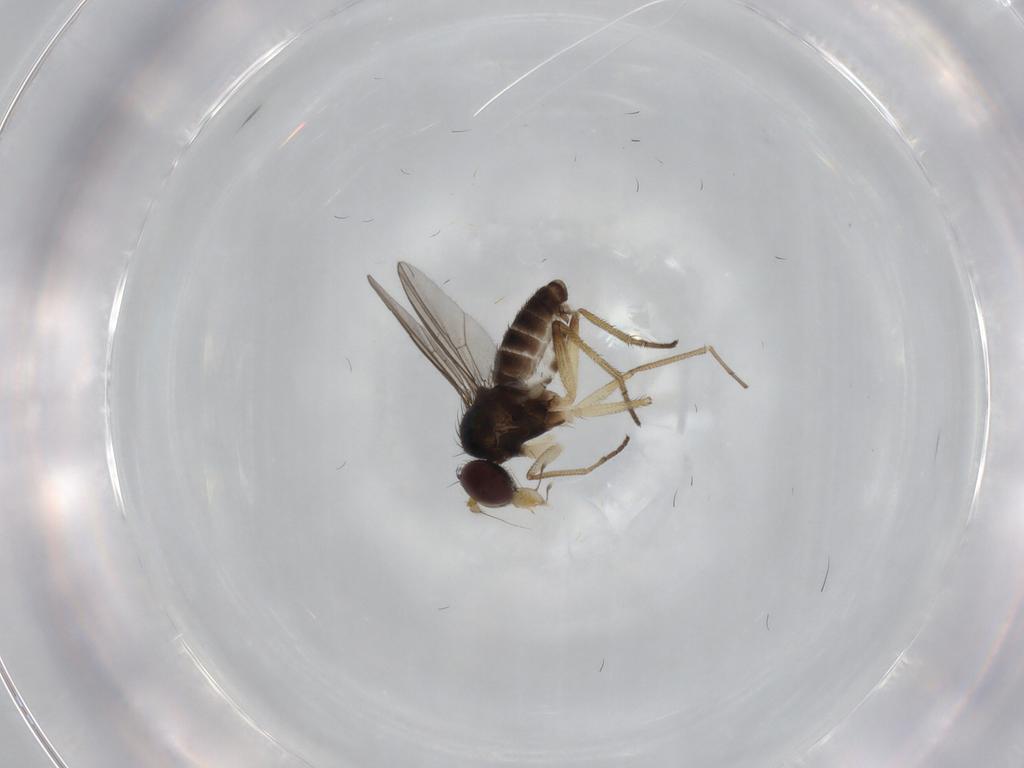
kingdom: Animalia
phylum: Arthropoda
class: Insecta
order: Diptera
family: Dolichopodidae
